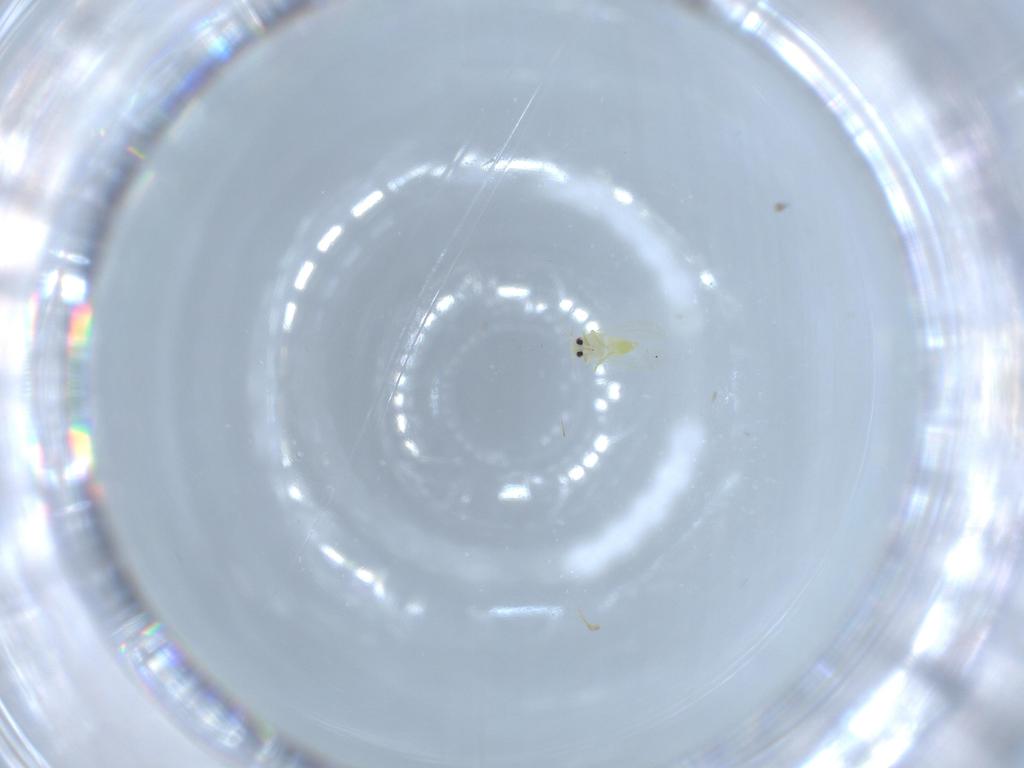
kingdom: Animalia
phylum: Arthropoda
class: Insecta
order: Hemiptera
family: Aleyrodidae
